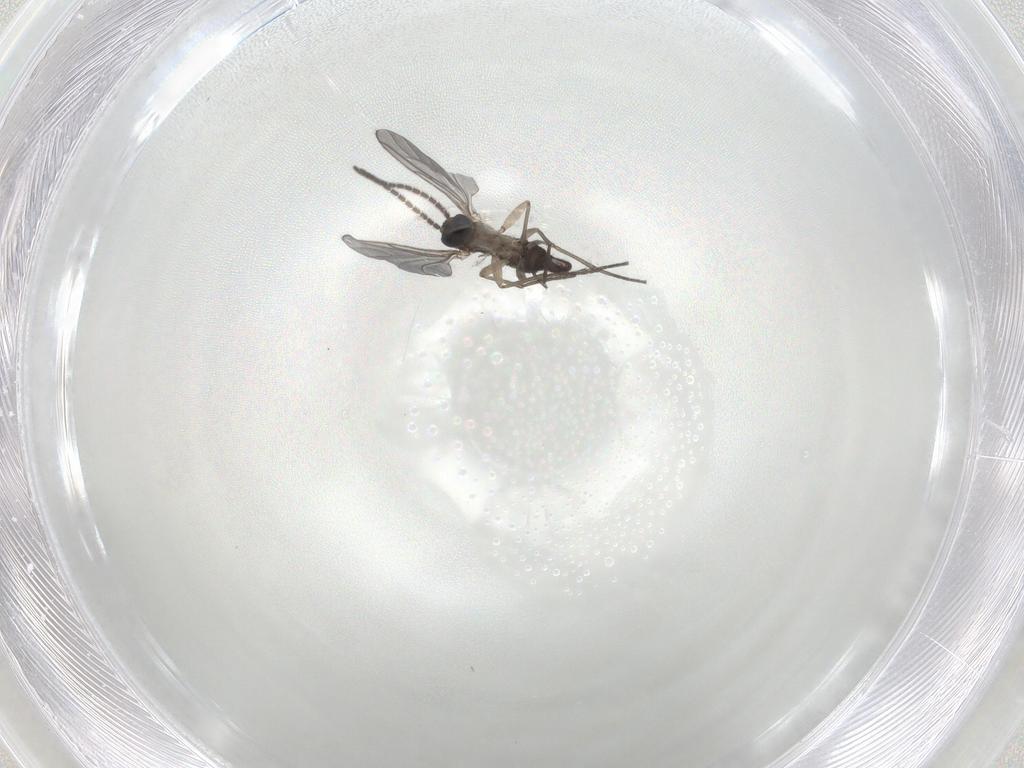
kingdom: Animalia
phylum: Arthropoda
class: Insecta
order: Diptera
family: Sciaridae
